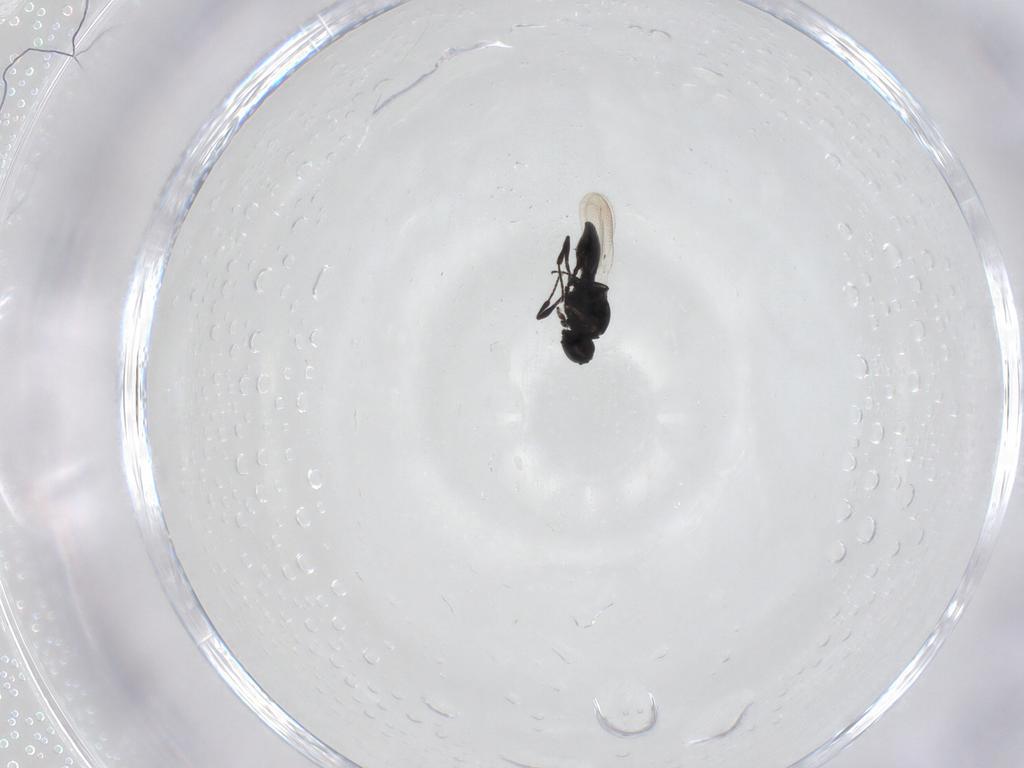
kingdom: Animalia
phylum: Arthropoda
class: Insecta
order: Hymenoptera
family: Platygastridae
